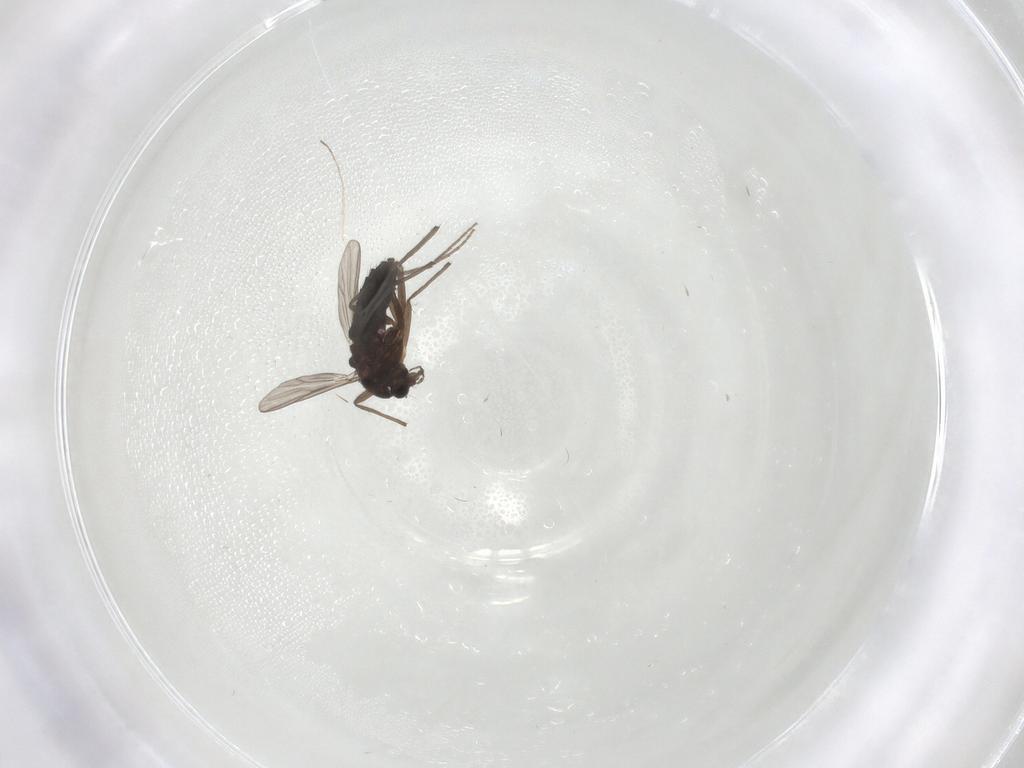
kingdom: Animalia
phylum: Arthropoda
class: Insecta
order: Diptera
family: Chironomidae
